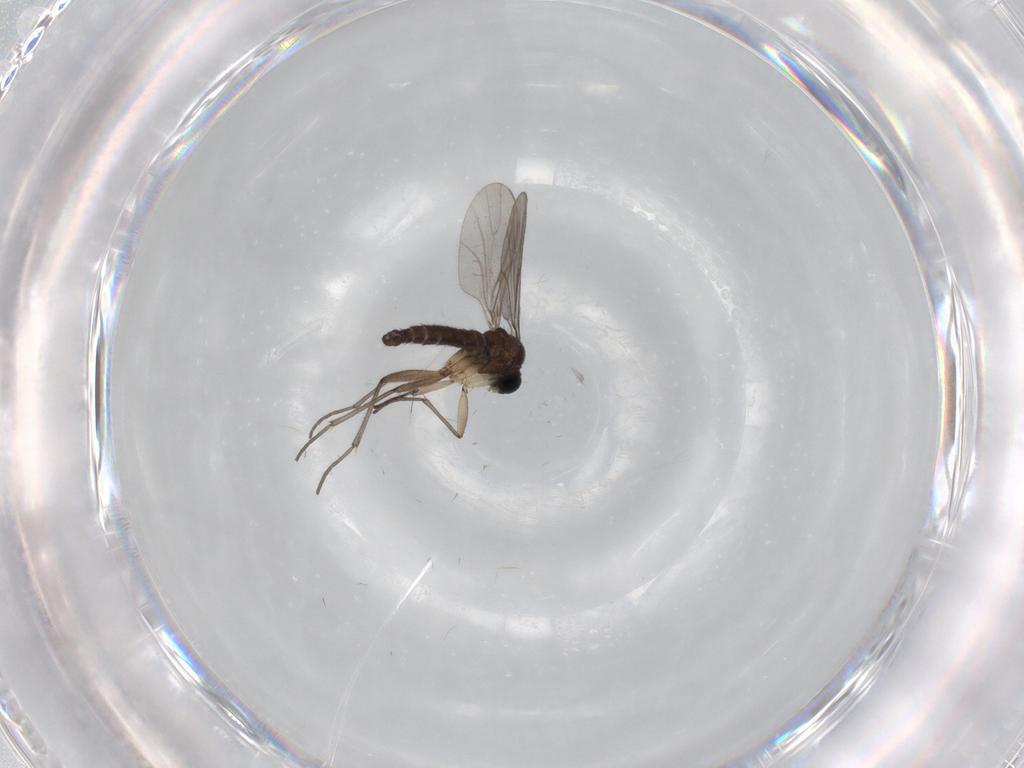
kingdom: Animalia
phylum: Arthropoda
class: Insecta
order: Diptera
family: Muscidae
